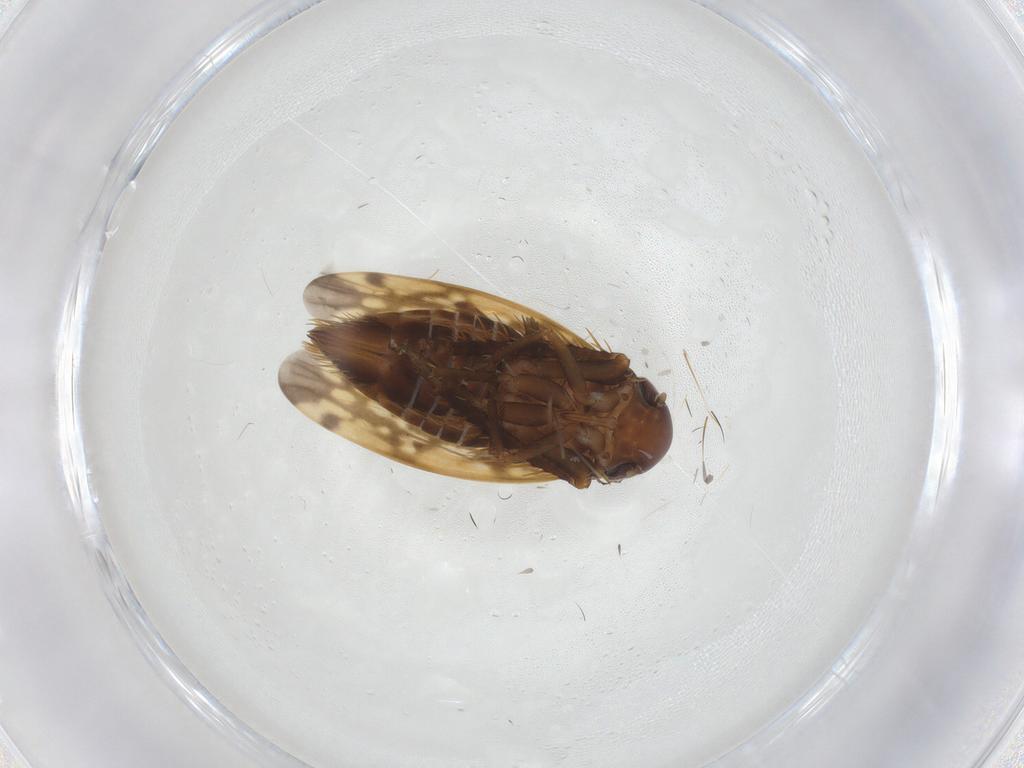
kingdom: Animalia
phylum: Arthropoda
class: Insecta
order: Hemiptera
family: Cicadellidae
